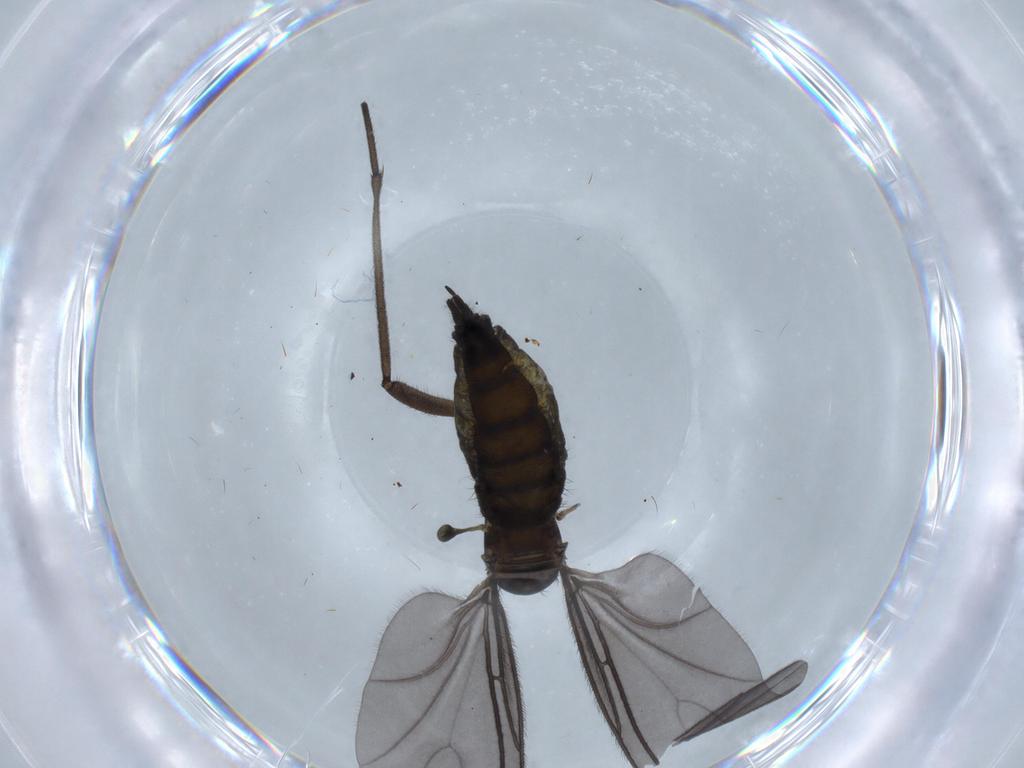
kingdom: Animalia
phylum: Arthropoda
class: Insecta
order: Diptera
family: Sciaridae
